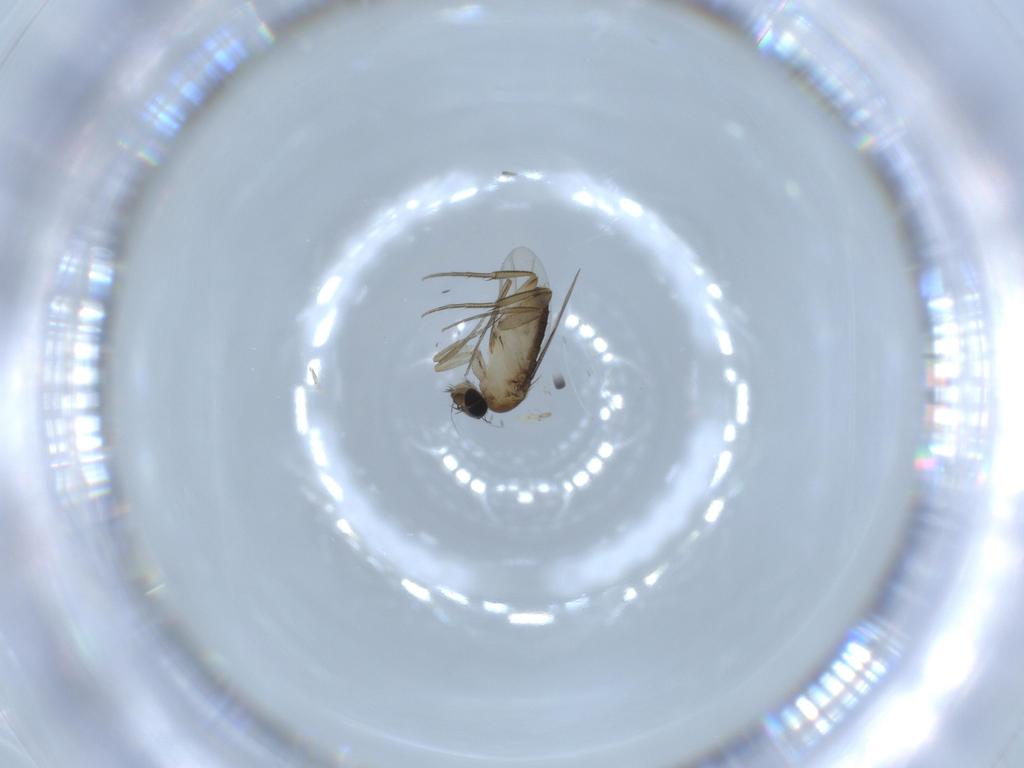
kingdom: Animalia
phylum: Arthropoda
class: Insecta
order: Diptera
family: Phoridae
